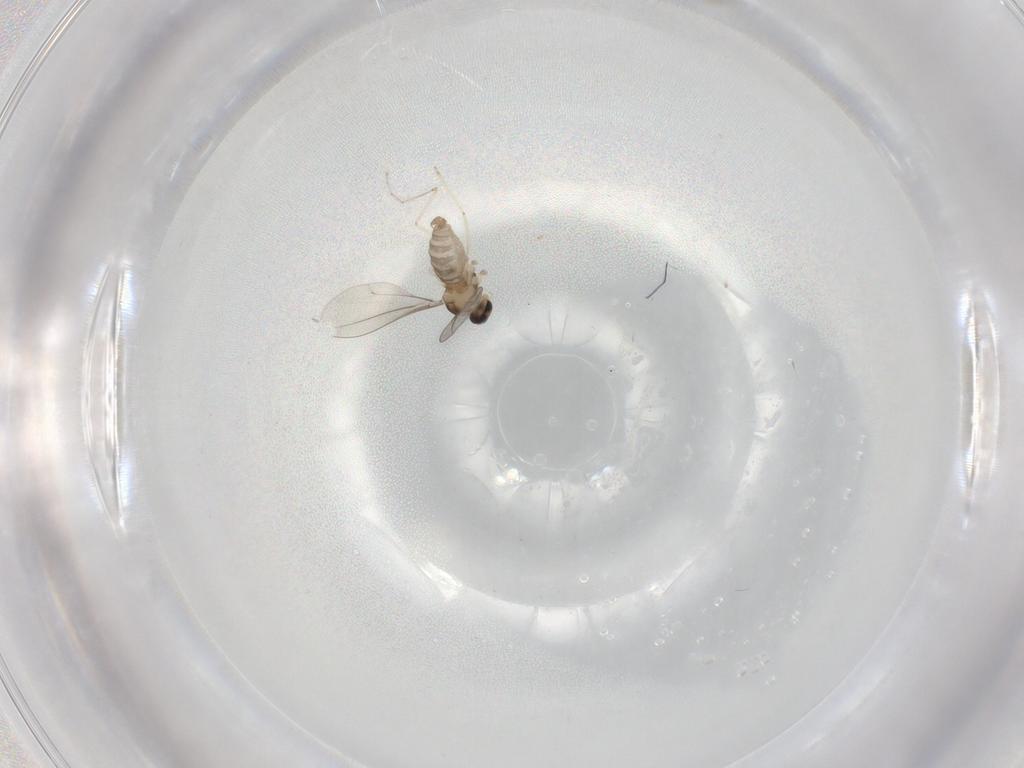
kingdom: Animalia
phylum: Arthropoda
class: Insecta
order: Diptera
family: Cecidomyiidae
